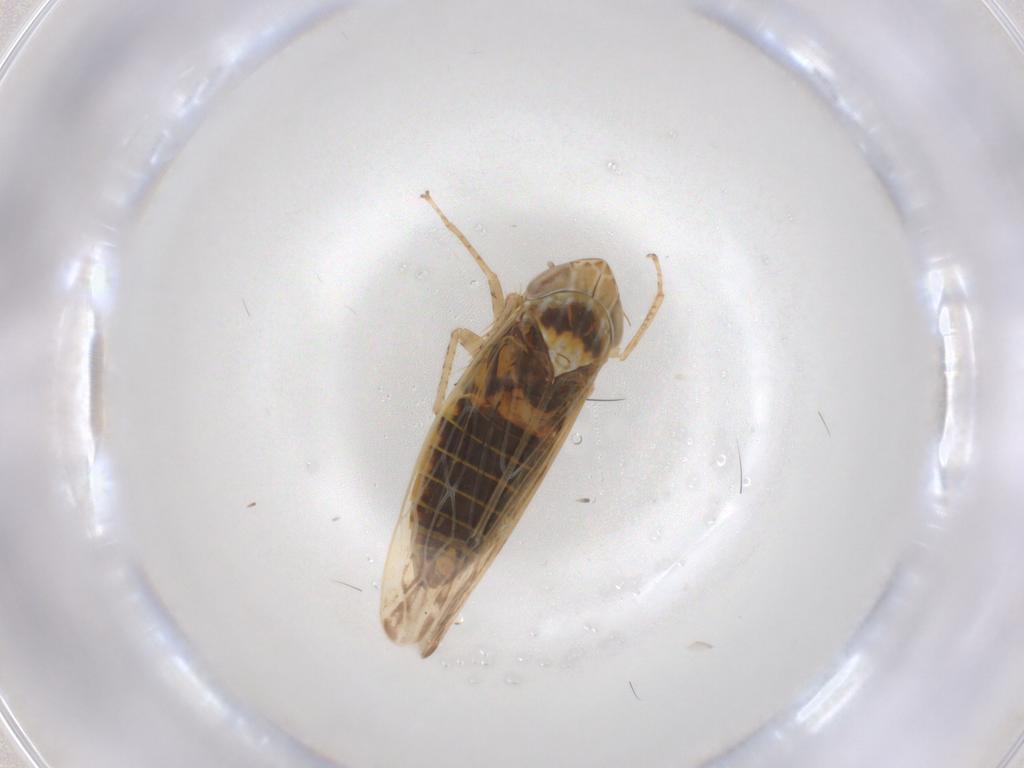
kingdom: Animalia
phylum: Arthropoda
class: Insecta
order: Hemiptera
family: Cicadellidae
